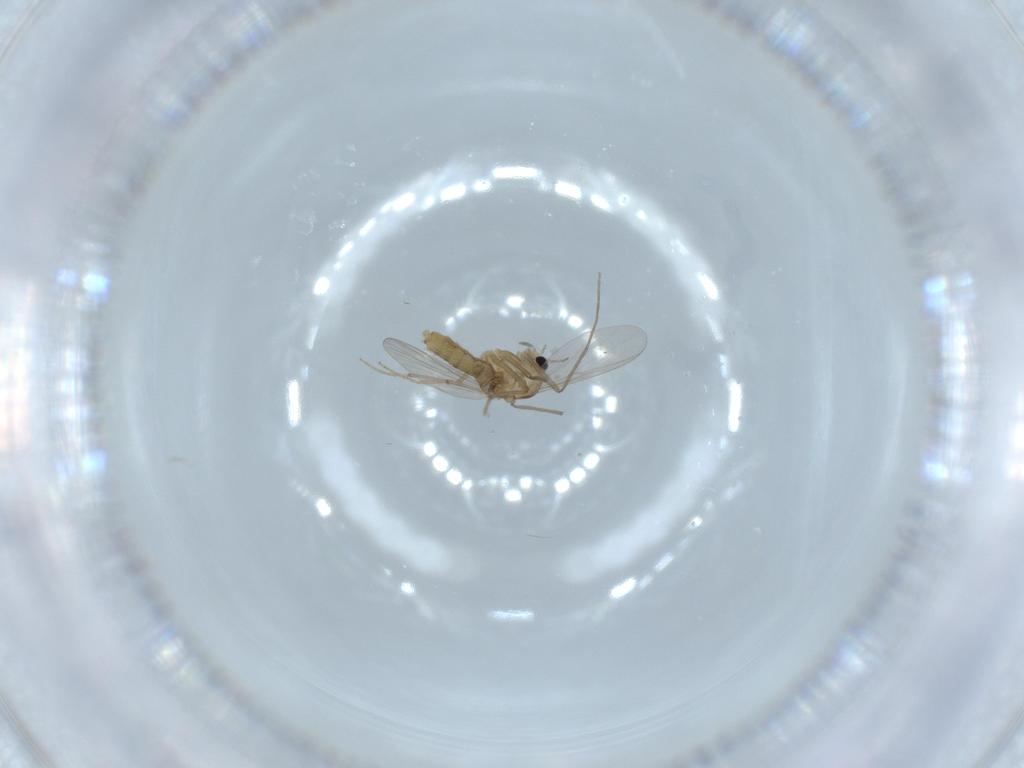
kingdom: Animalia
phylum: Arthropoda
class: Insecta
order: Diptera
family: Chironomidae
